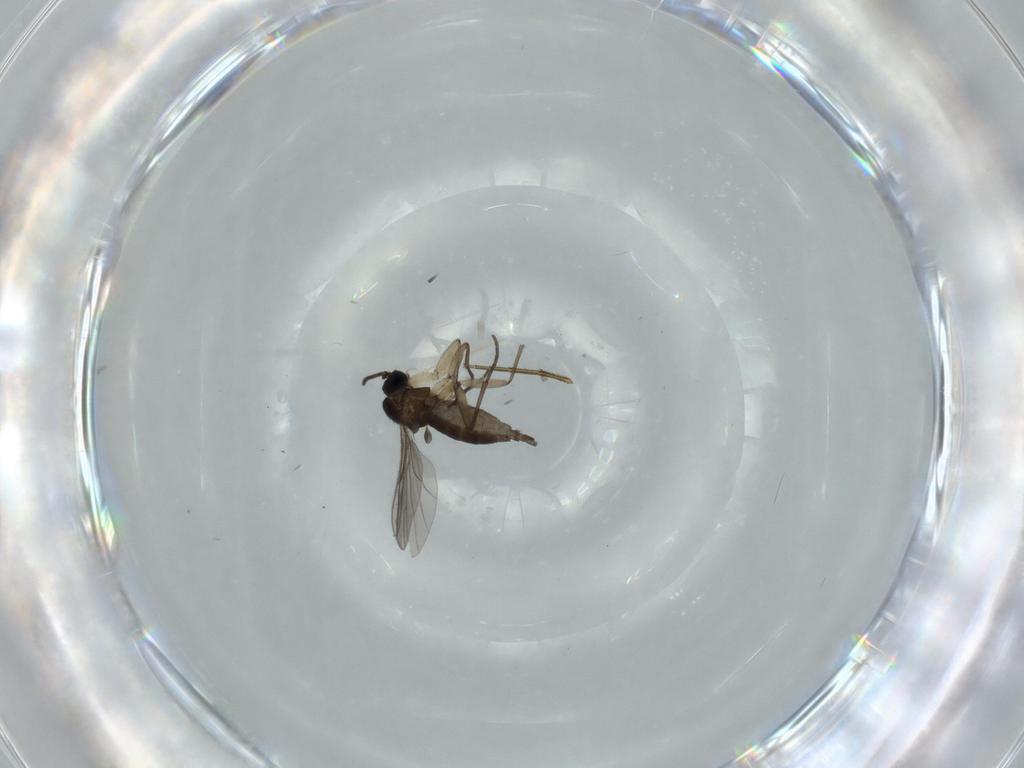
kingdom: Animalia
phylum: Arthropoda
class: Insecta
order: Diptera
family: Sciaridae
